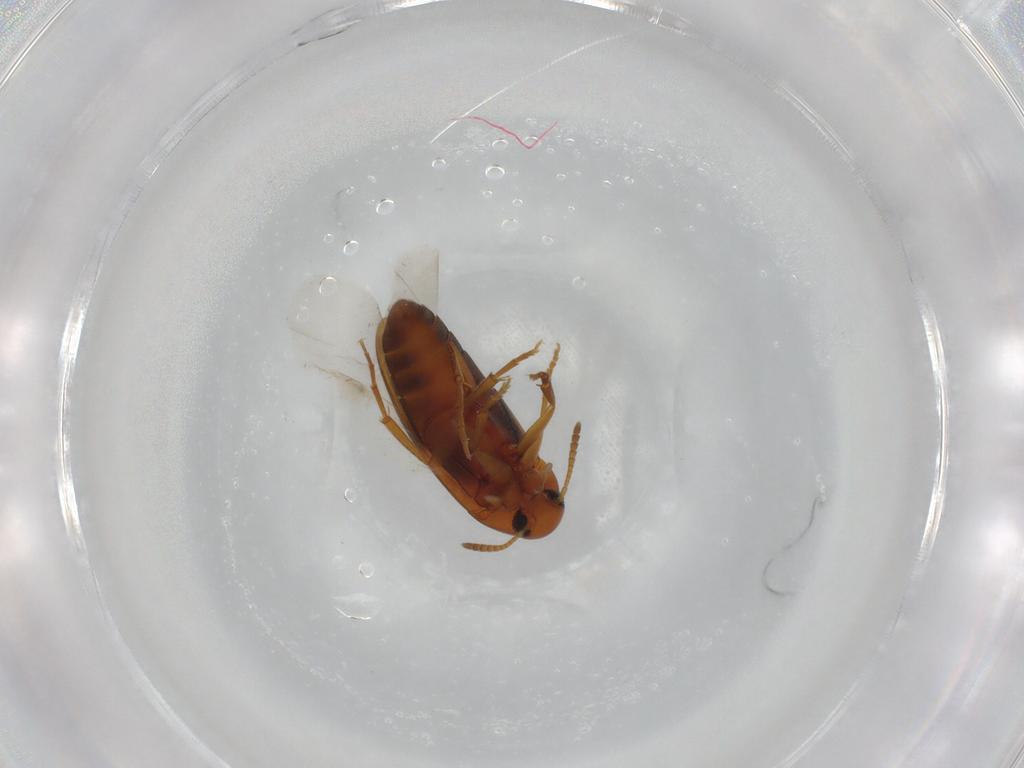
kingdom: Animalia
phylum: Arthropoda
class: Insecta
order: Coleoptera
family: Scraptiidae
